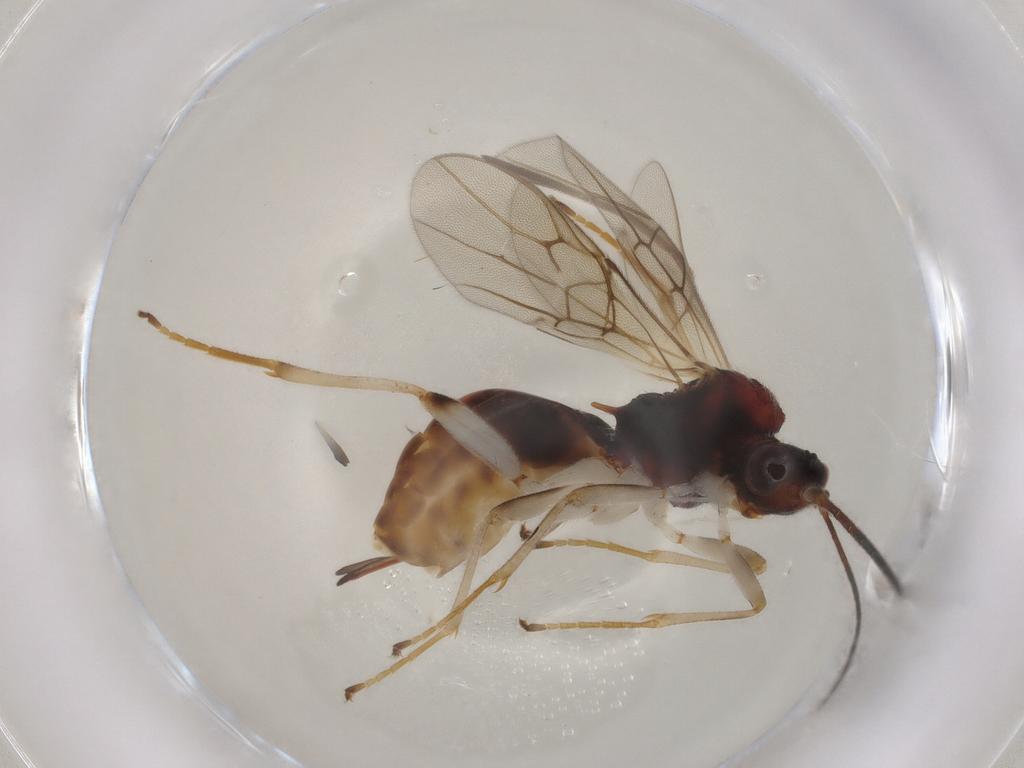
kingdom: Animalia
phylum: Arthropoda
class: Insecta
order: Hymenoptera
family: Braconidae
